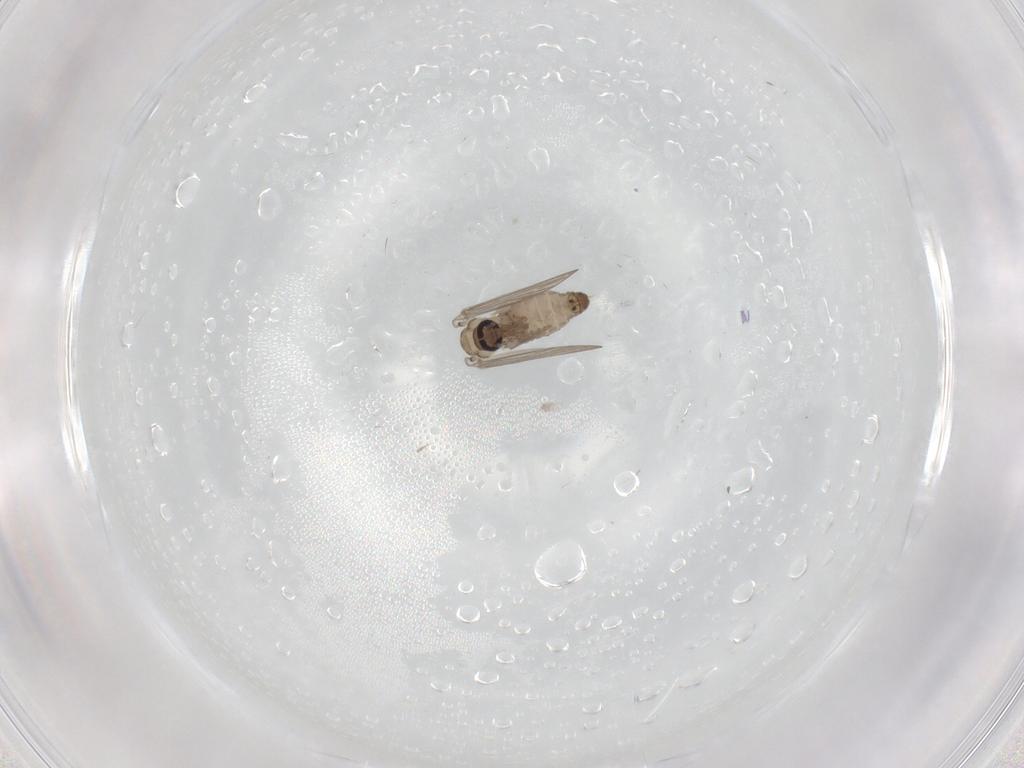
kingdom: Animalia
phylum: Arthropoda
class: Insecta
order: Diptera
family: Psychodidae
